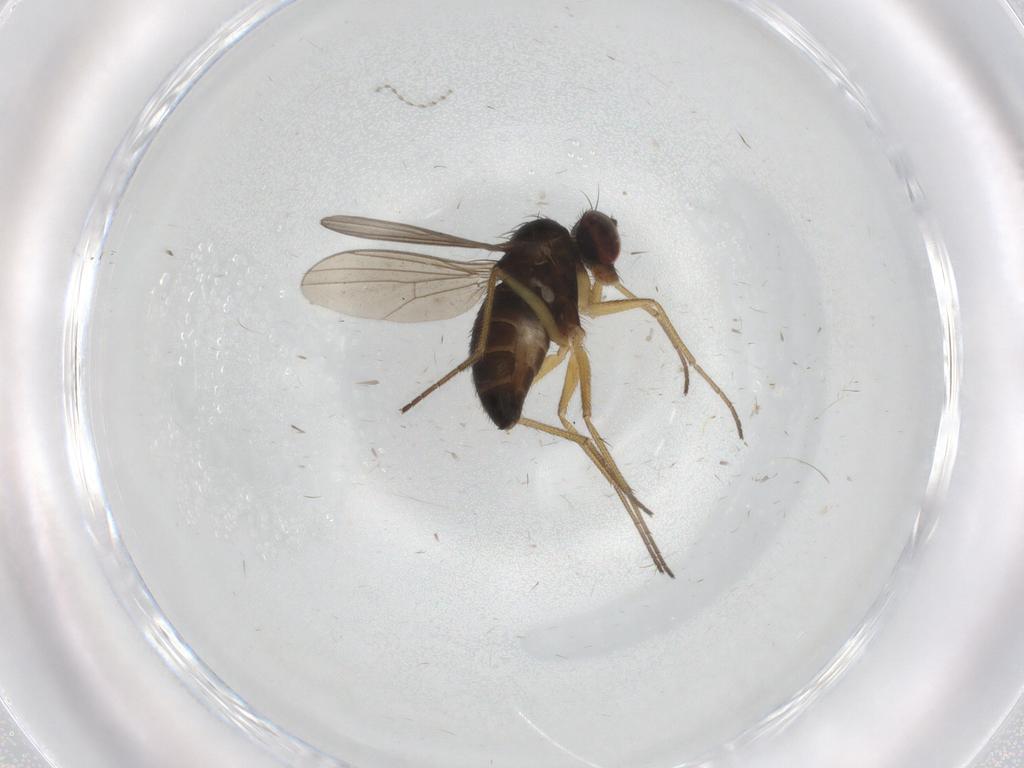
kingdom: Animalia
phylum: Arthropoda
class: Insecta
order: Diptera
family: Dolichopodidae
